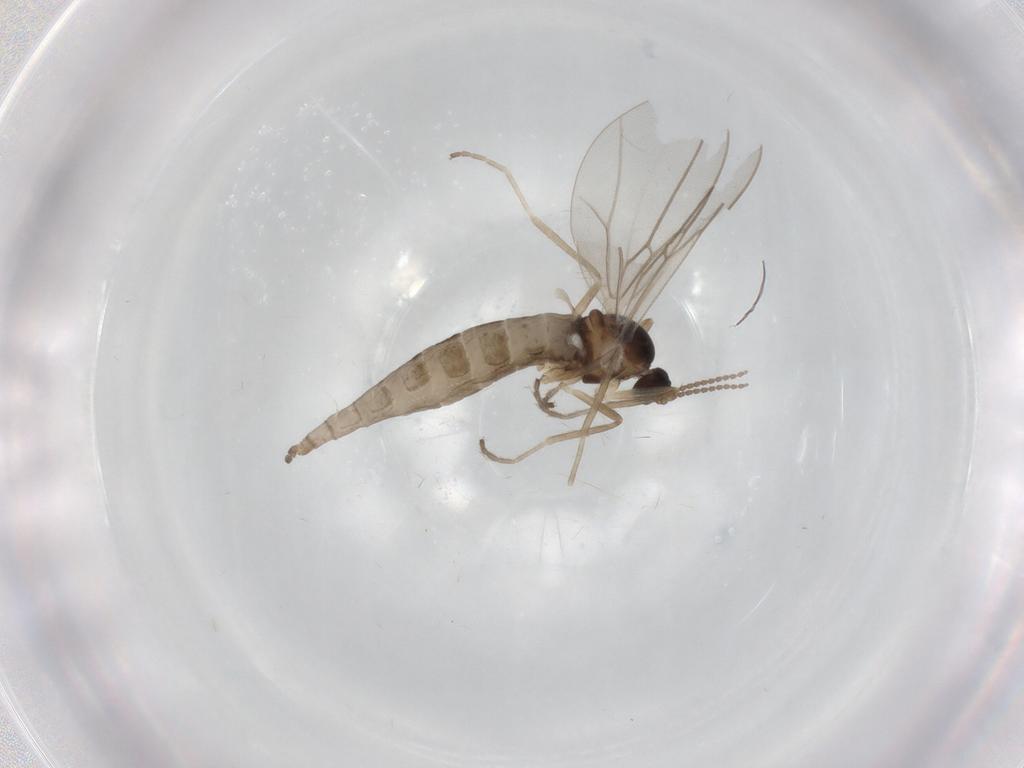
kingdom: Animalia
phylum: Arthropoda
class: Insecta
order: Diptera
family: Cecidomyiidae
